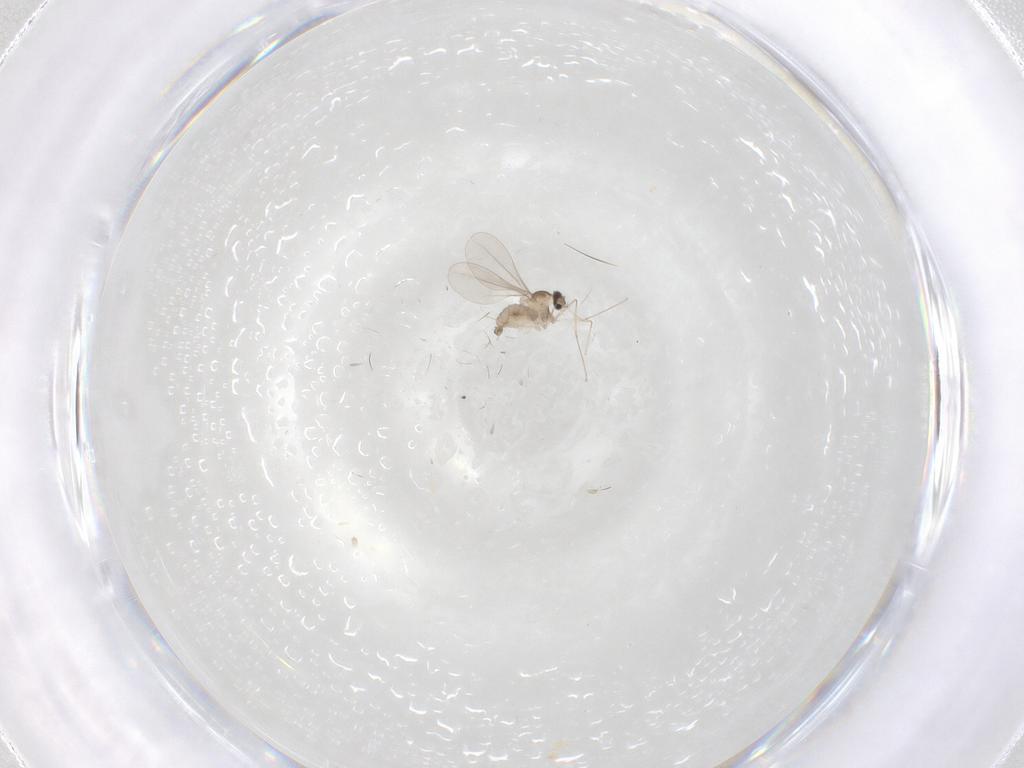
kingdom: Animalia
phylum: Arthropoda
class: Insecta
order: Diptera
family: Cecidomyiidae
